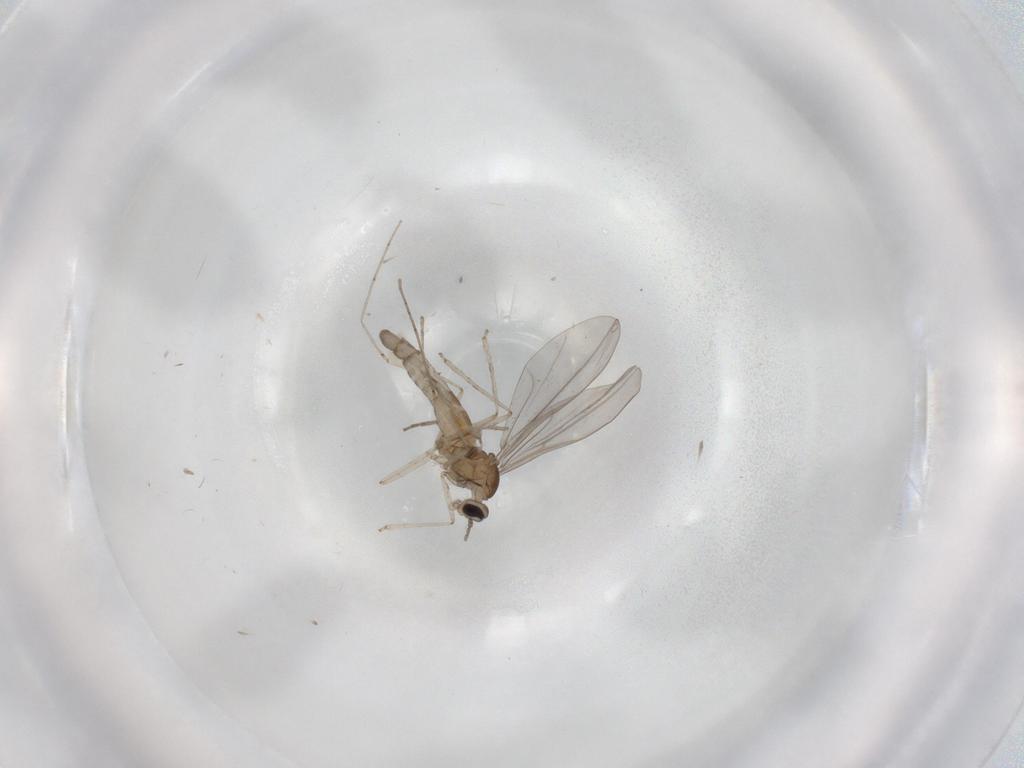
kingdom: Animalia
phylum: Arthropoda
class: Insecta
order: Diptera
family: Cecidomyiidae
